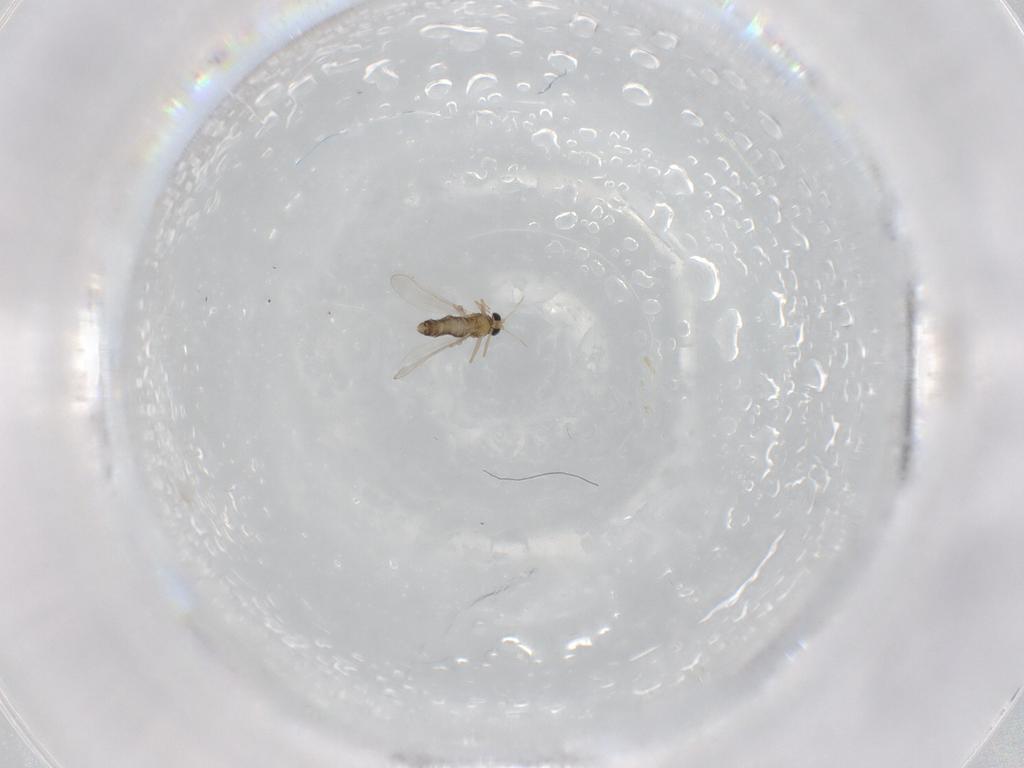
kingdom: Animalia
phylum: Arthropoda
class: Insecta
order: Diptera
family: Chironomidae
